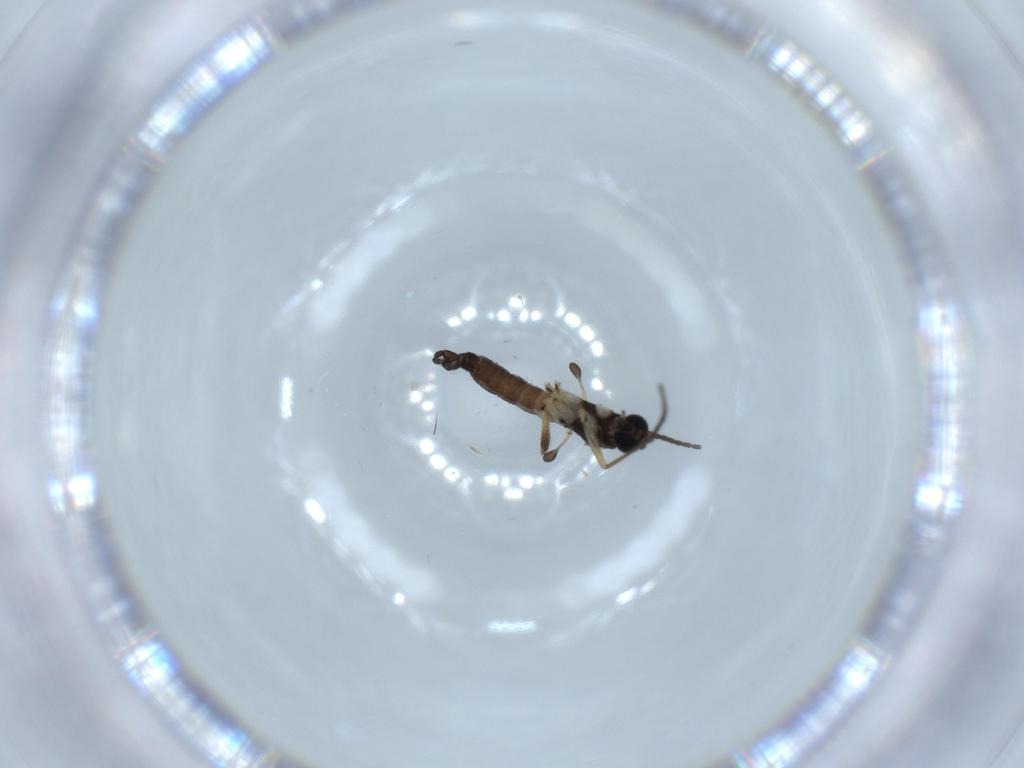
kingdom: Animalia
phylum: Arthropoda
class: Insecta
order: Diptera
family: Sciaridae
